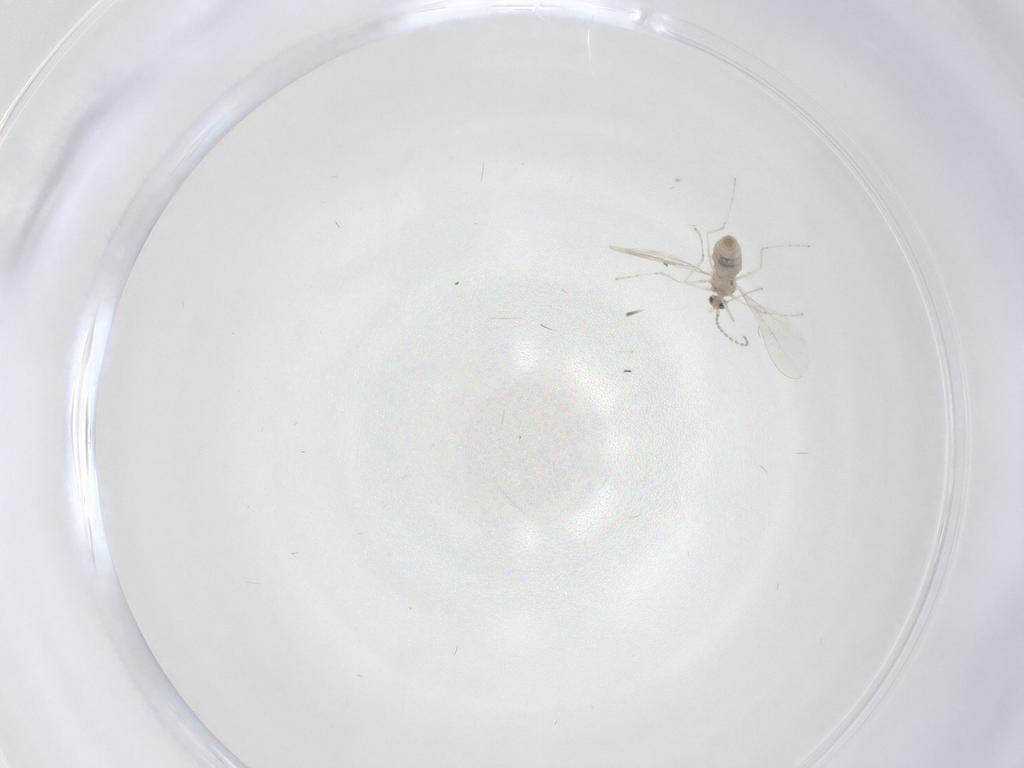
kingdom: Animalia
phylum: Arthropoda
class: Insecta
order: Diptera
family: Cecidomyiidae
